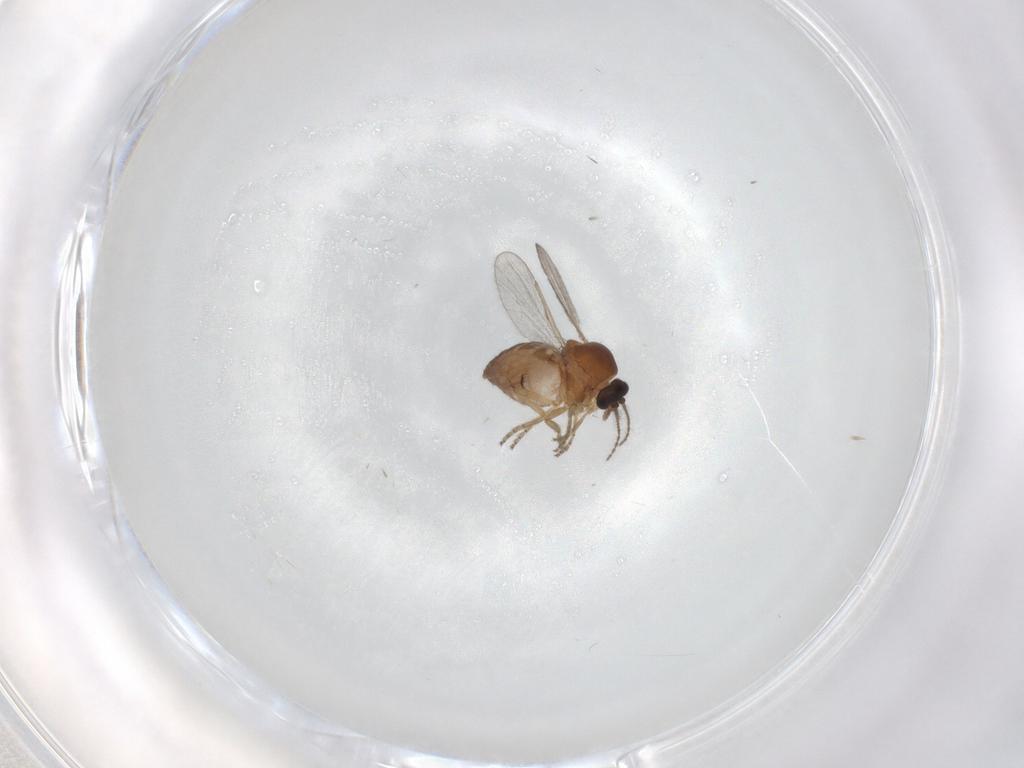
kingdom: Animalia
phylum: Arthropoda
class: Insecta
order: Diptera
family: Ceratopogonidae
